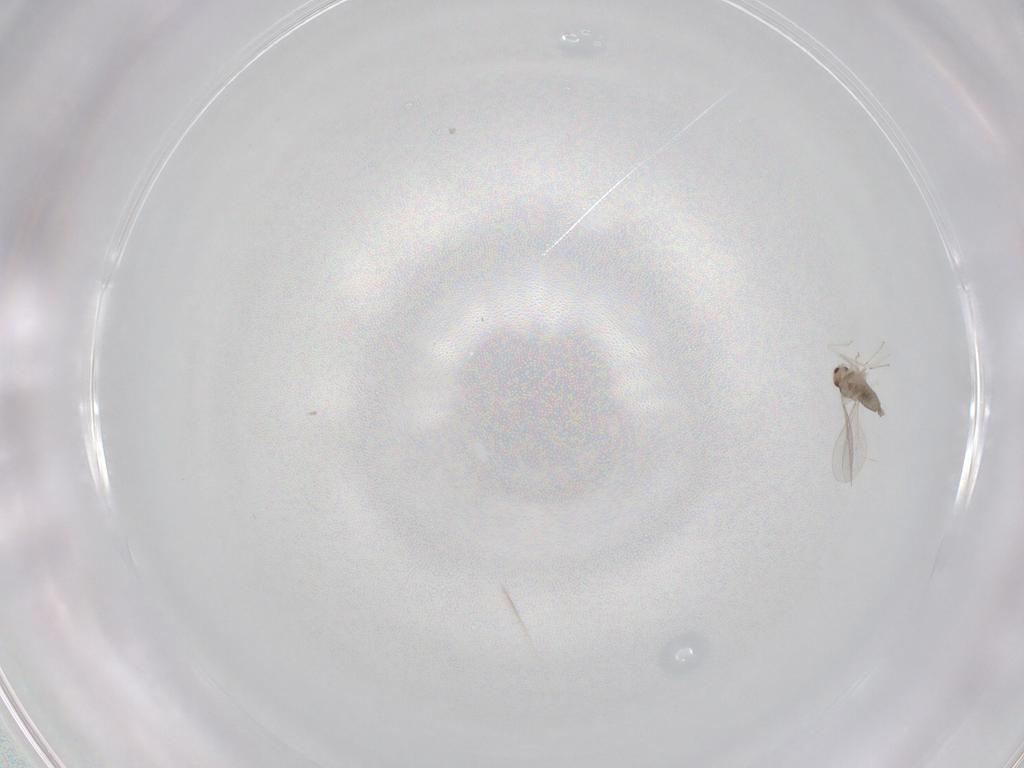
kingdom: Animalia
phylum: Arthropoda
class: Insecta
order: Diptera
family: Cecidomyiidae
